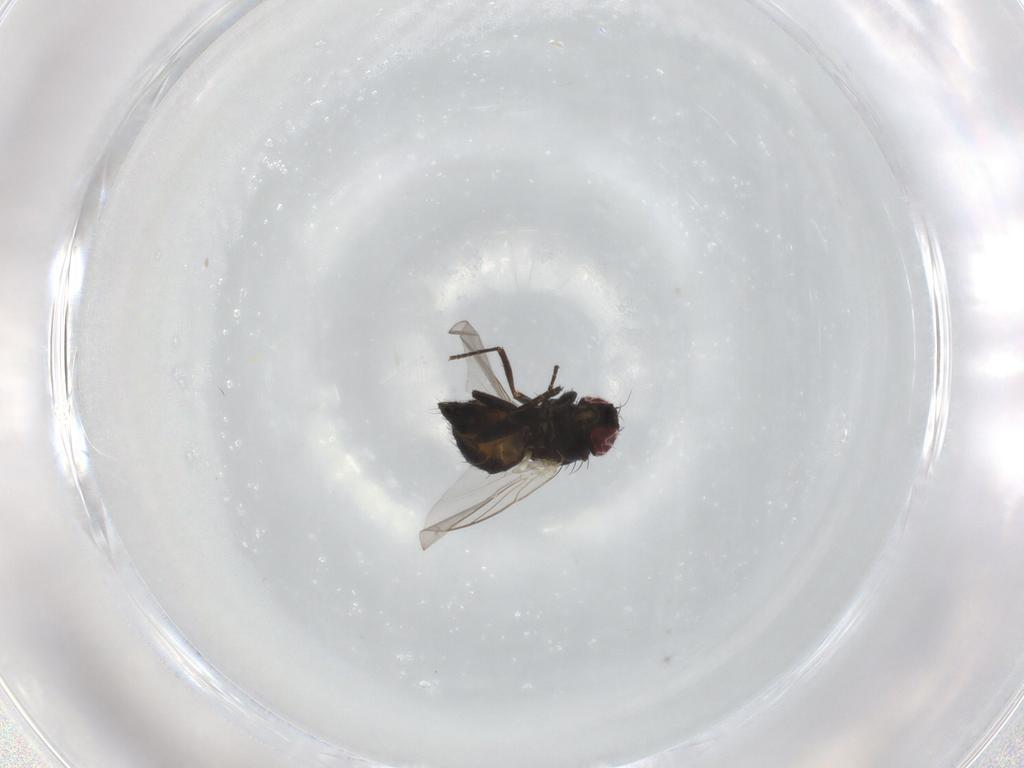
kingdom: Animalia
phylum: Arthropoda
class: Insecta
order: Diptera
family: Agromyzidae
